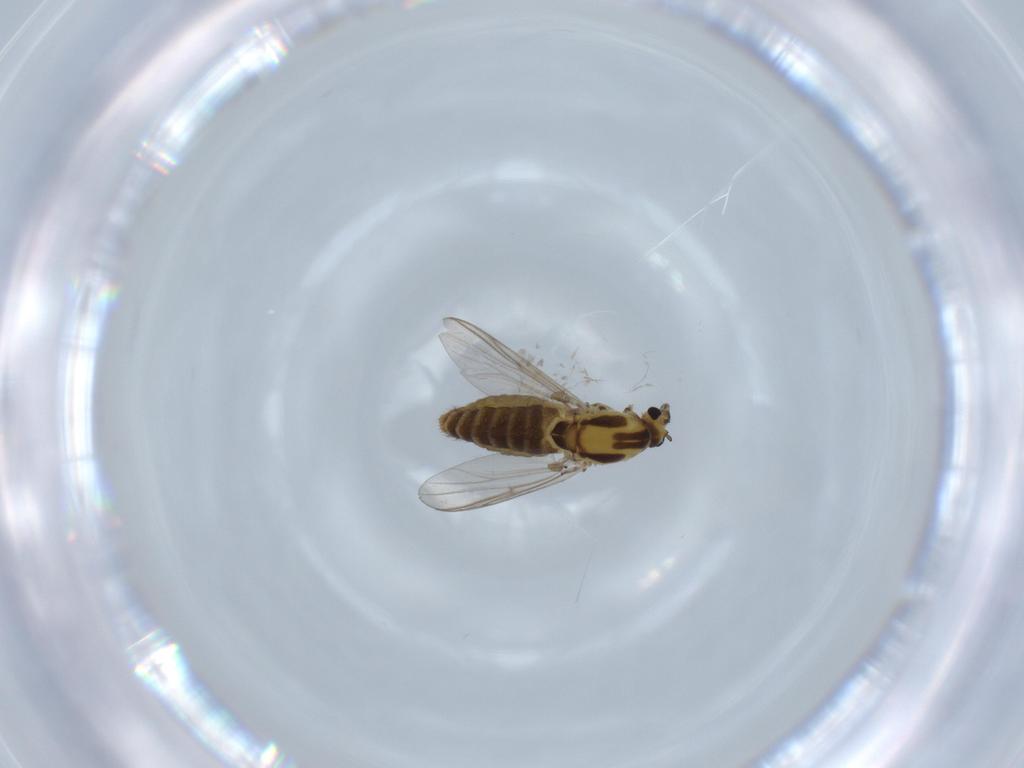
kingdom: Animalia
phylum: Arthropoda
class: Insecta
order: Diptera
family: Chironomidae
